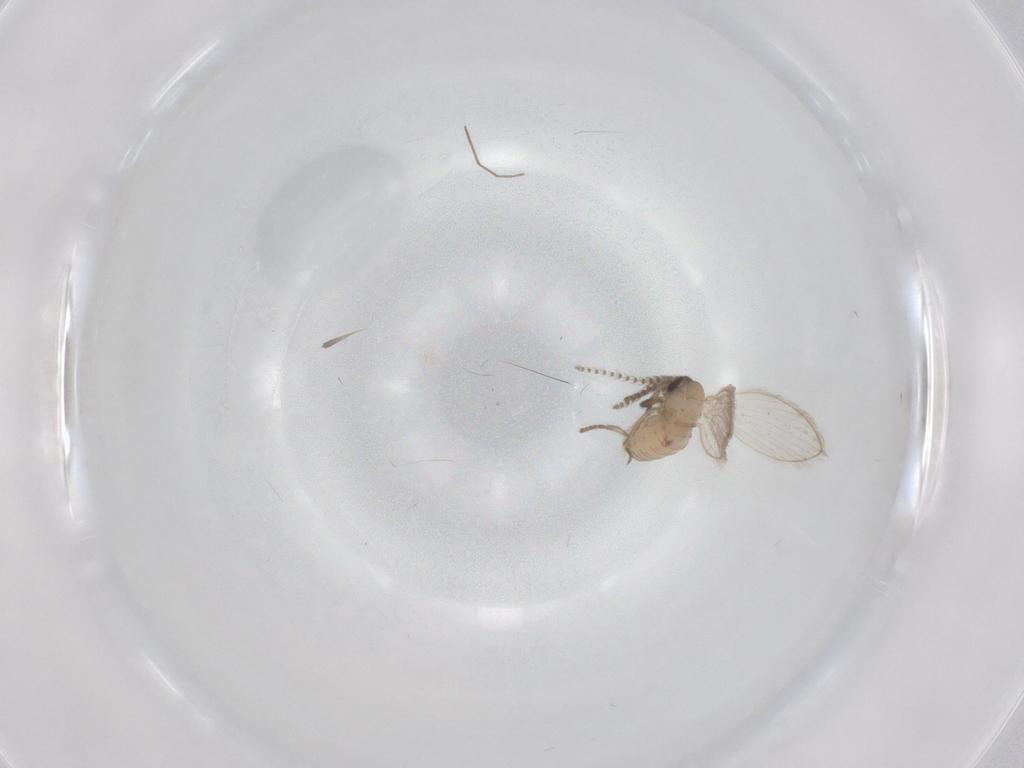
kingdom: Animalia
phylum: Arthropoda
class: Insecta
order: Diptera
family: Psychodidae
